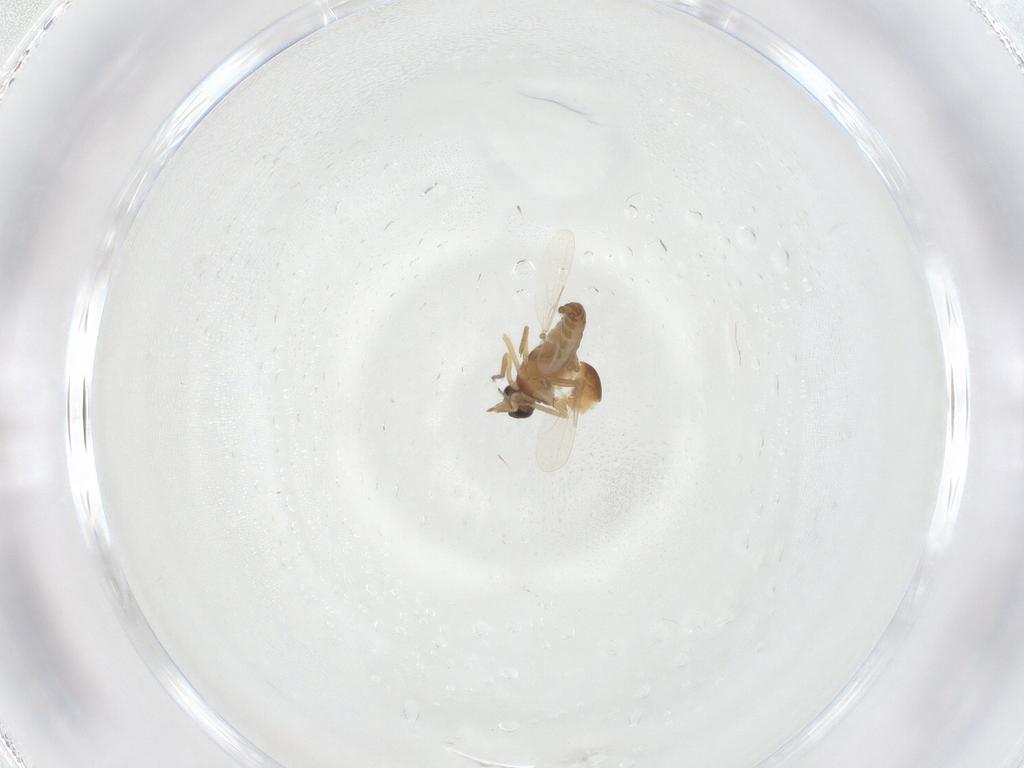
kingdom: Animalia
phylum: Arthropoda
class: Insecta
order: Diptera
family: Ceratopogonidae
